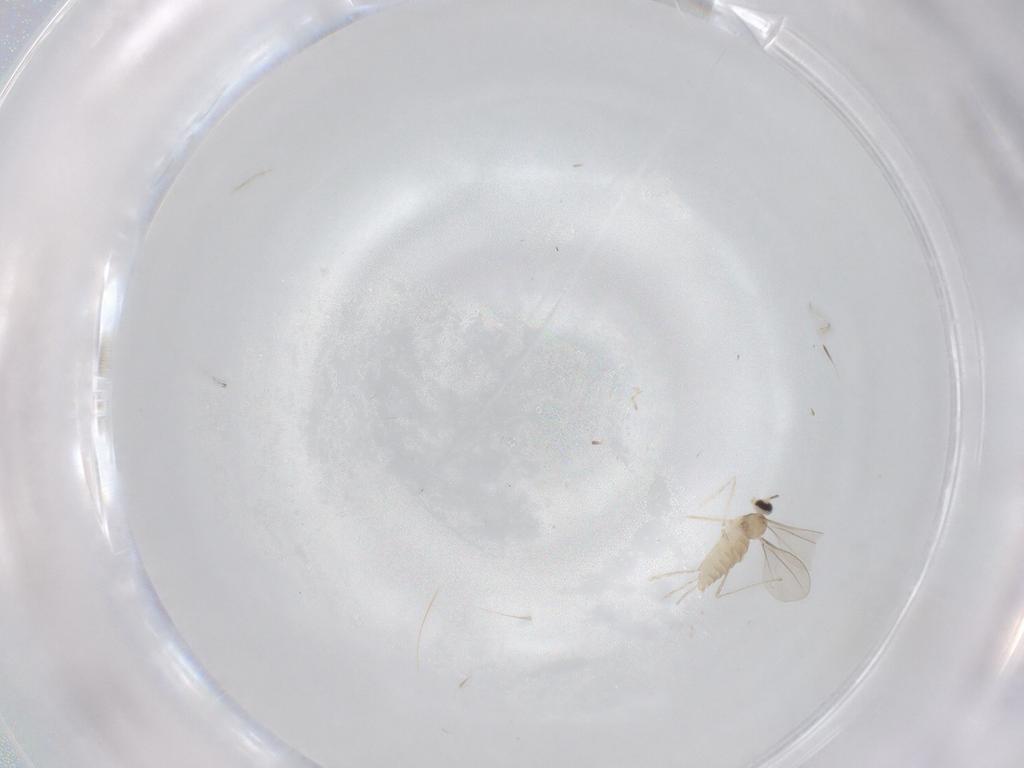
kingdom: Animalia
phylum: Arthropoda
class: Insecta
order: Diptera
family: Cecidomyiidae
